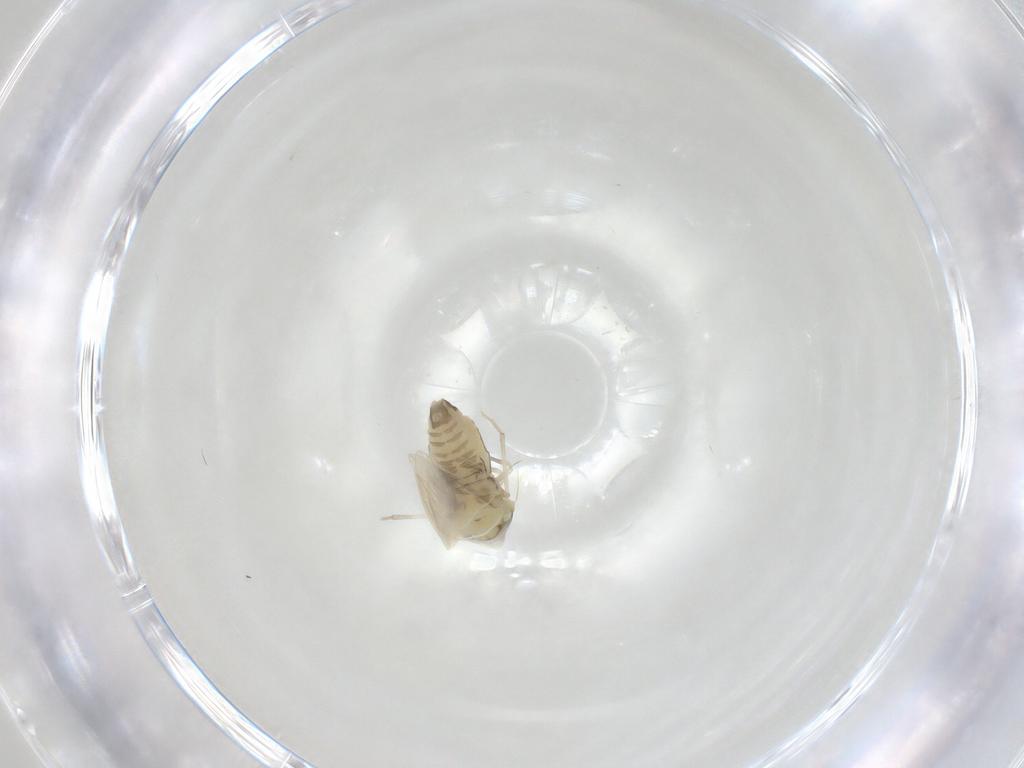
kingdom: Animalia
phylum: Arthropoda
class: Insecta
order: Hemiptera
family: Aleyrodidae
